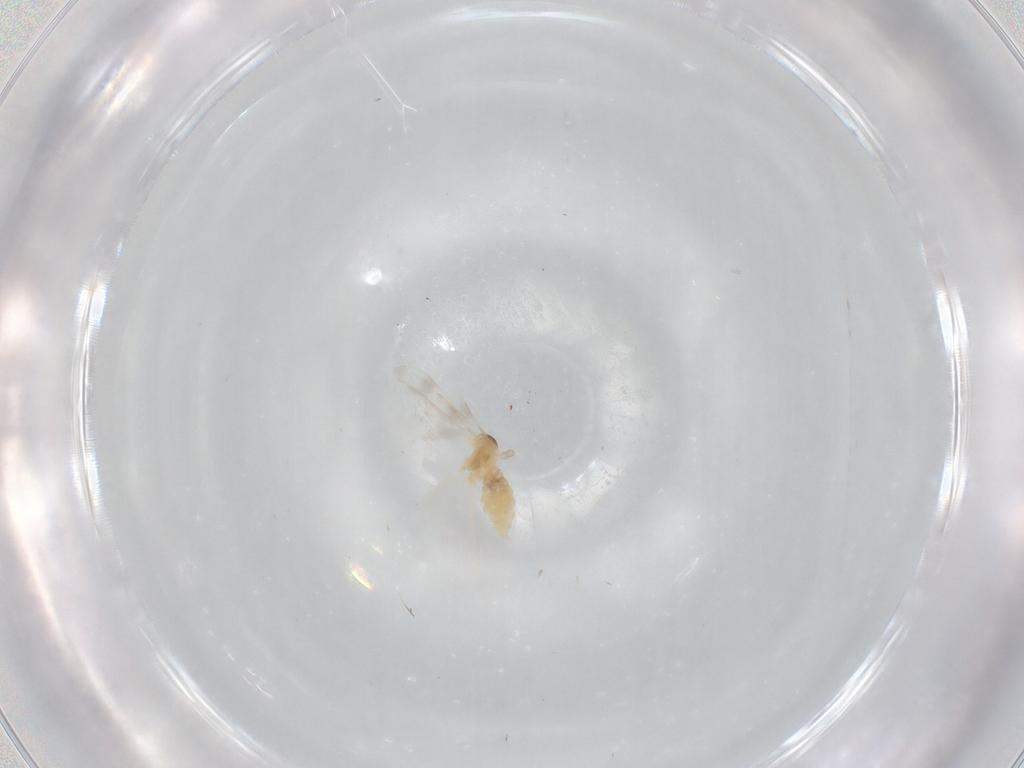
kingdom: Animalia
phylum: Arthropoda
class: Insecta
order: Diptera
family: Cecidomyiidae
